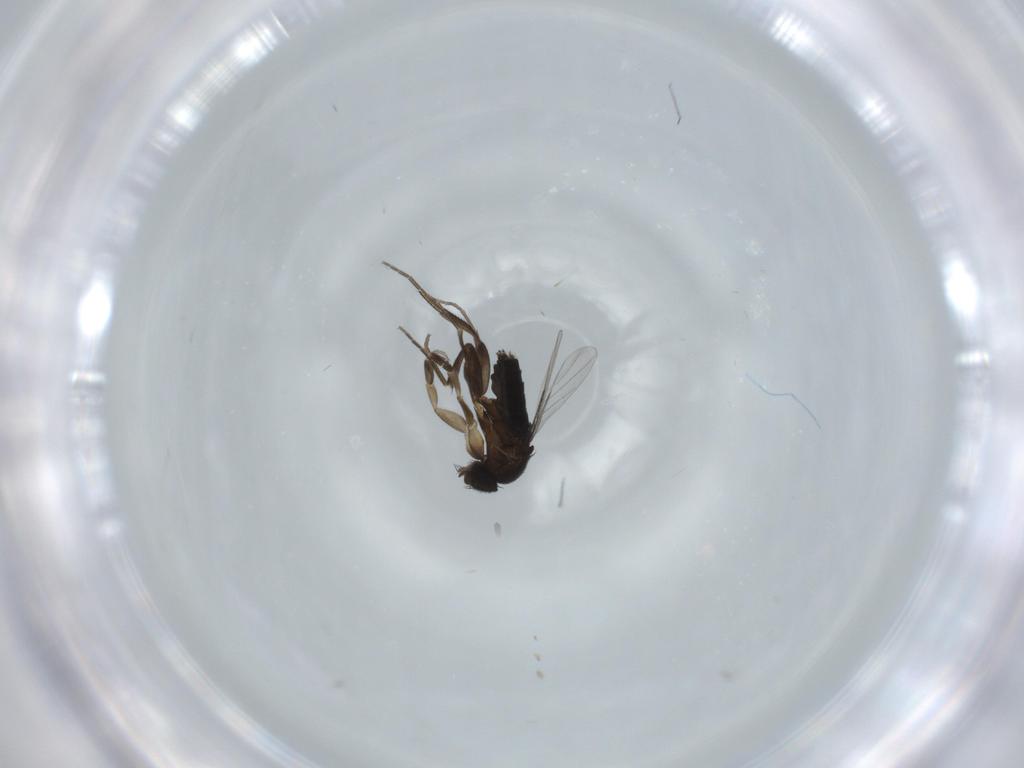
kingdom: Animalia
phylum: Arthropoda
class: Insecta
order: Diptera
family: Phoridae
